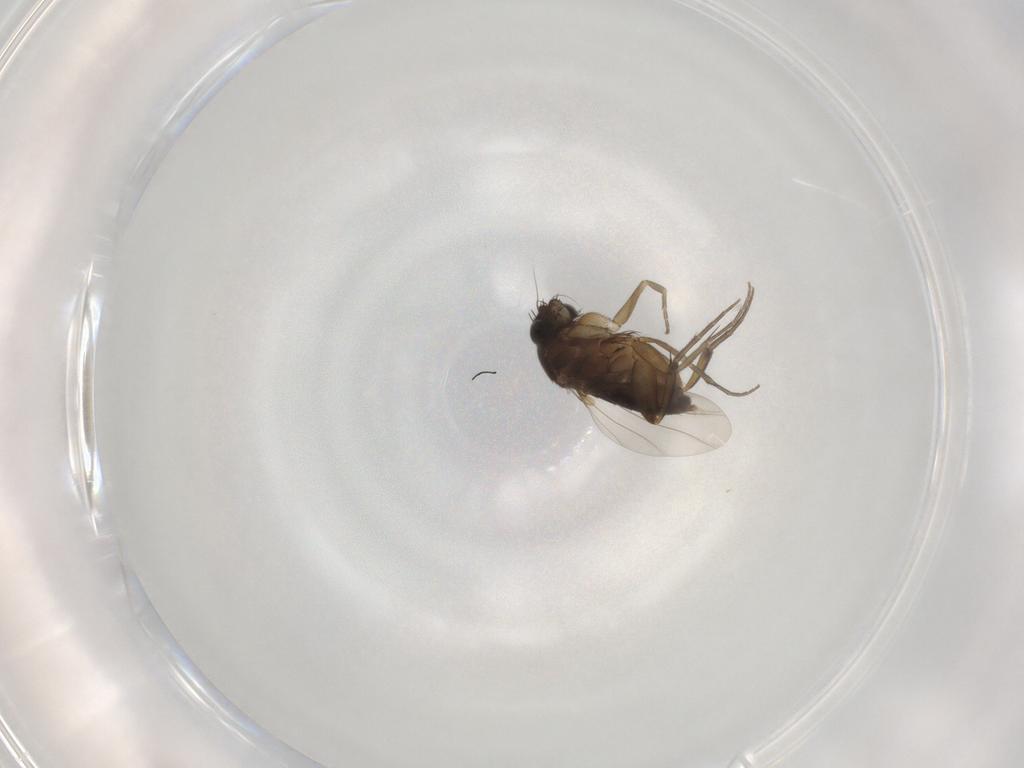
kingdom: Animalia
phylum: Arthropoda
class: Insecta
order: Diptera
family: Phoridae
